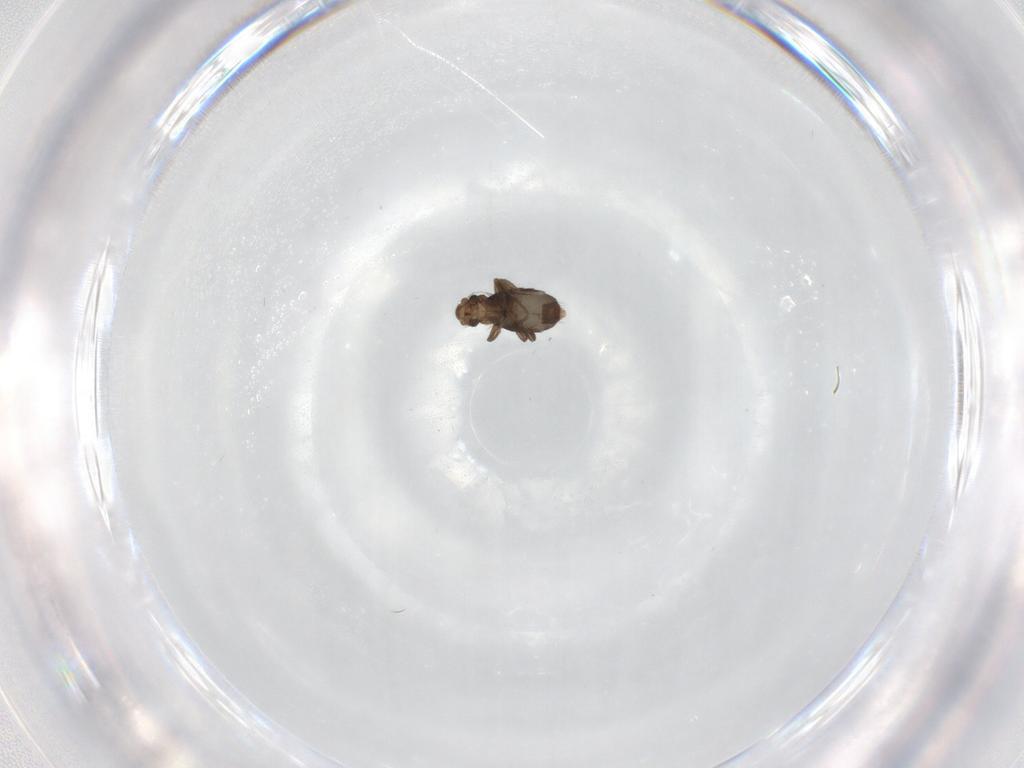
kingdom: Animalia
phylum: Arthropoda
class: Insecta
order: Diptera
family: Phoridae
